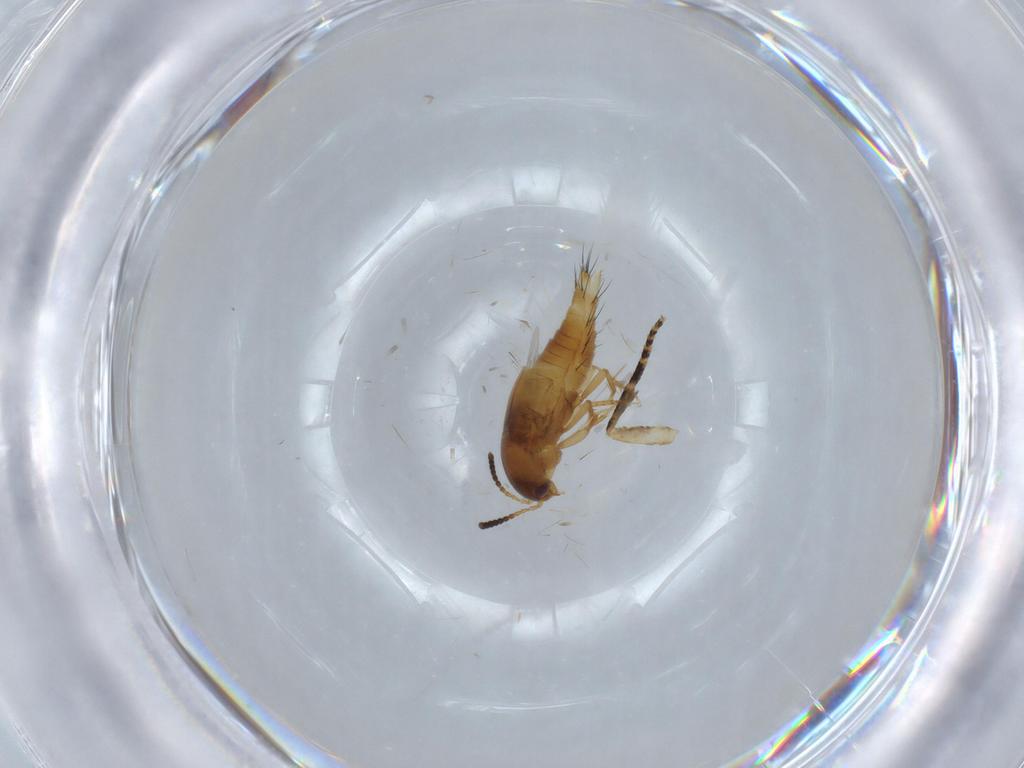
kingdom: Animalia
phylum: Arthropoda
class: Insecta
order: Coleoptera
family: Staphylinidae
